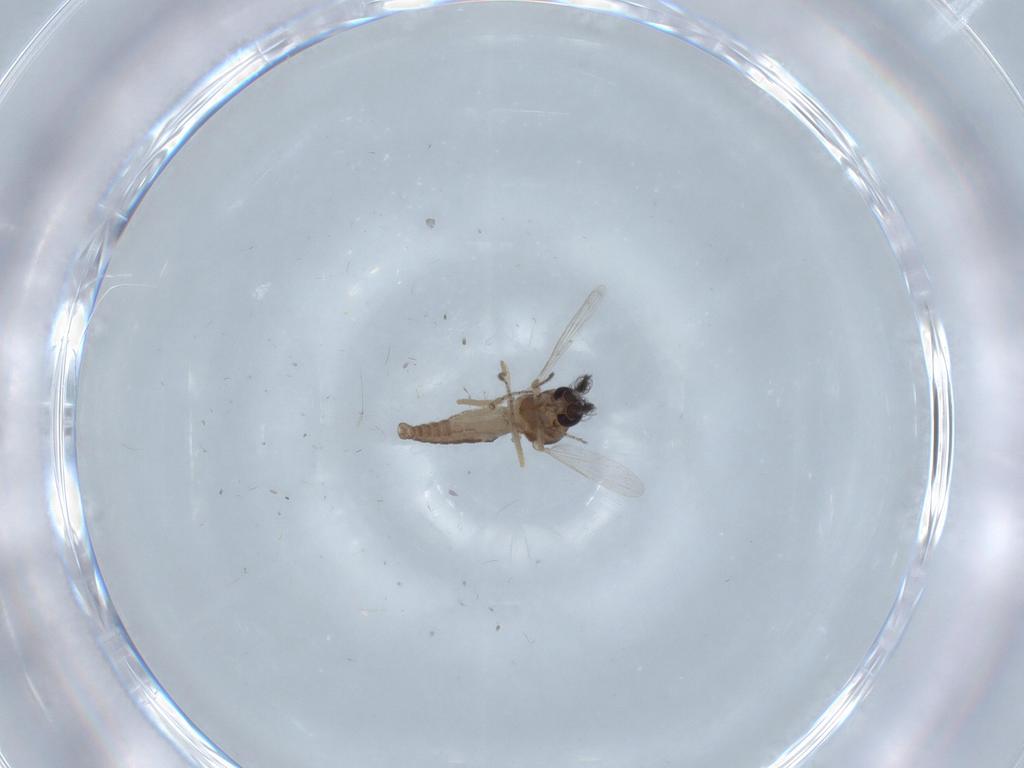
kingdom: Animalia
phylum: Arthropoda
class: Insecta
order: Diptera
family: Ceratopogonidae
